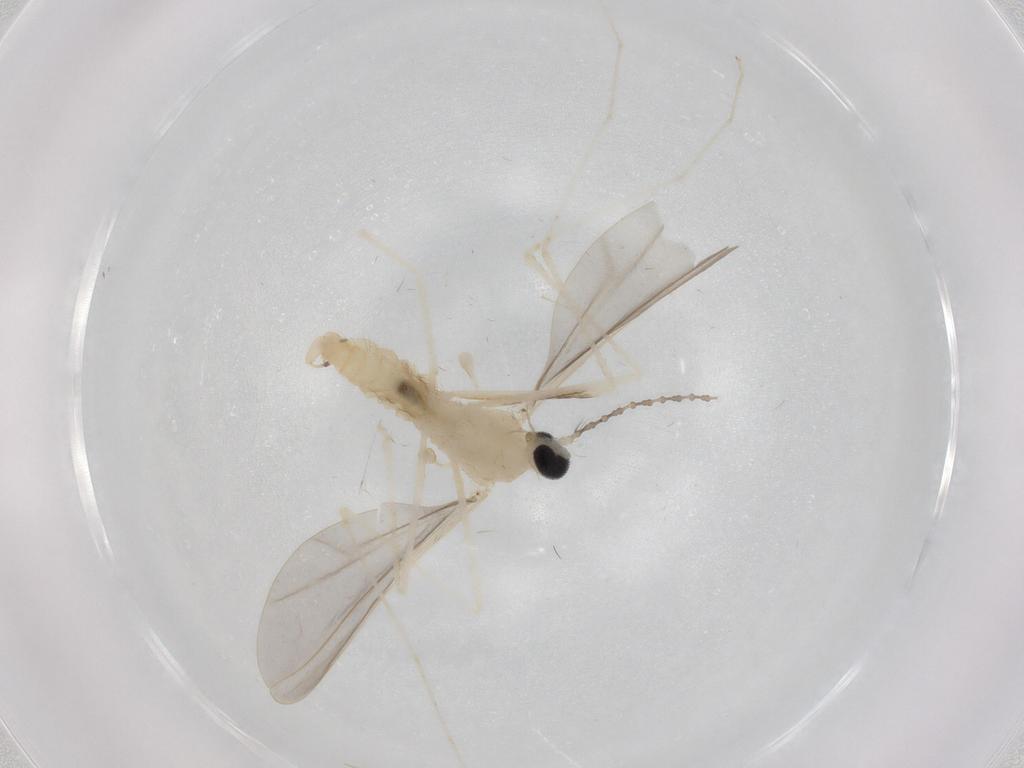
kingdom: Animalia
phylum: Arthropoda
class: Insecta
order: Diptera
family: Cecidomyiidae
